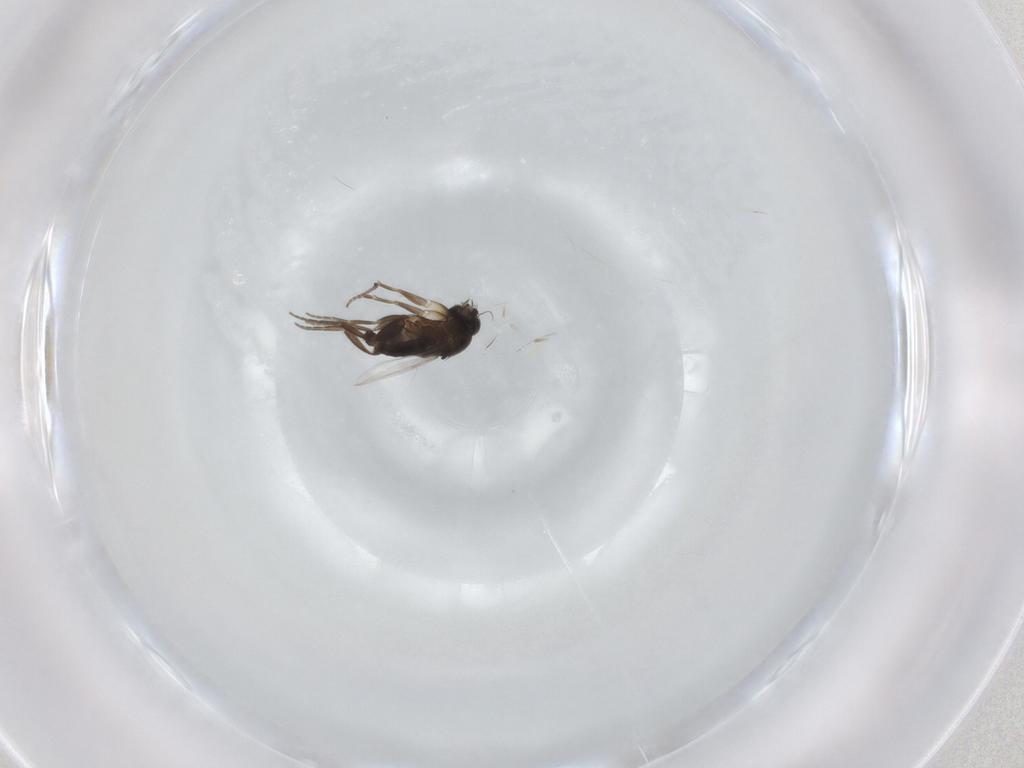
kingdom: Animalia
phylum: Arthropoda
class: Insecta
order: Diptera
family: Phoridae
